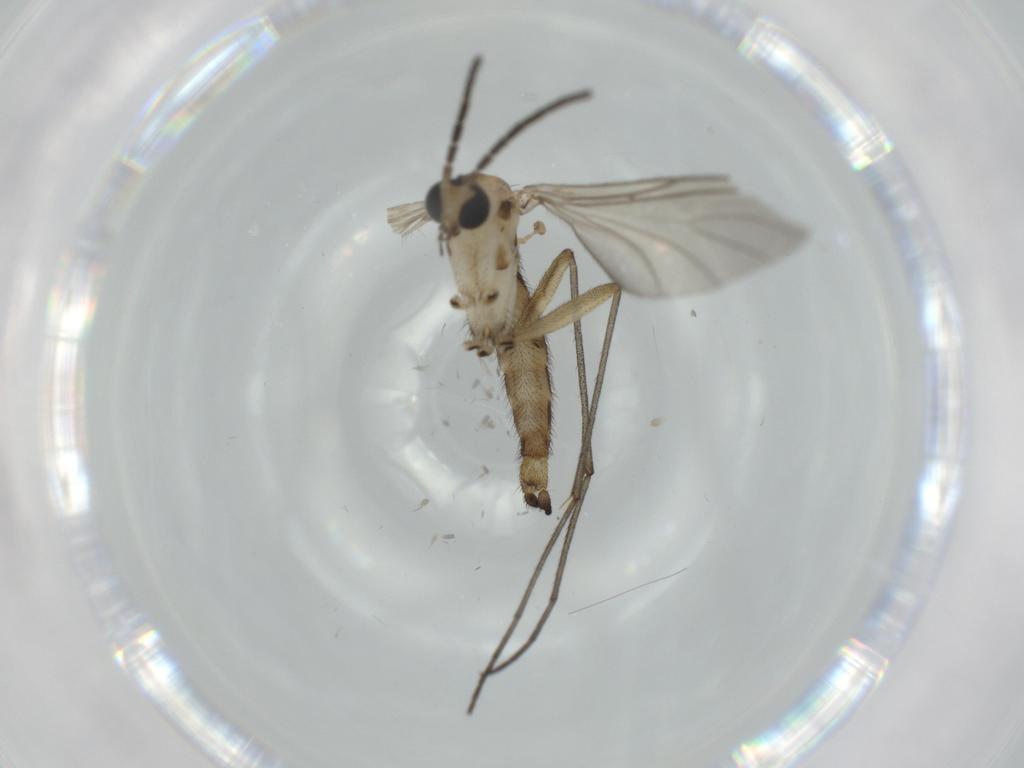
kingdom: Animalia
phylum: Arthropoda
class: Insecta
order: Diptera
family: Sciaridae
